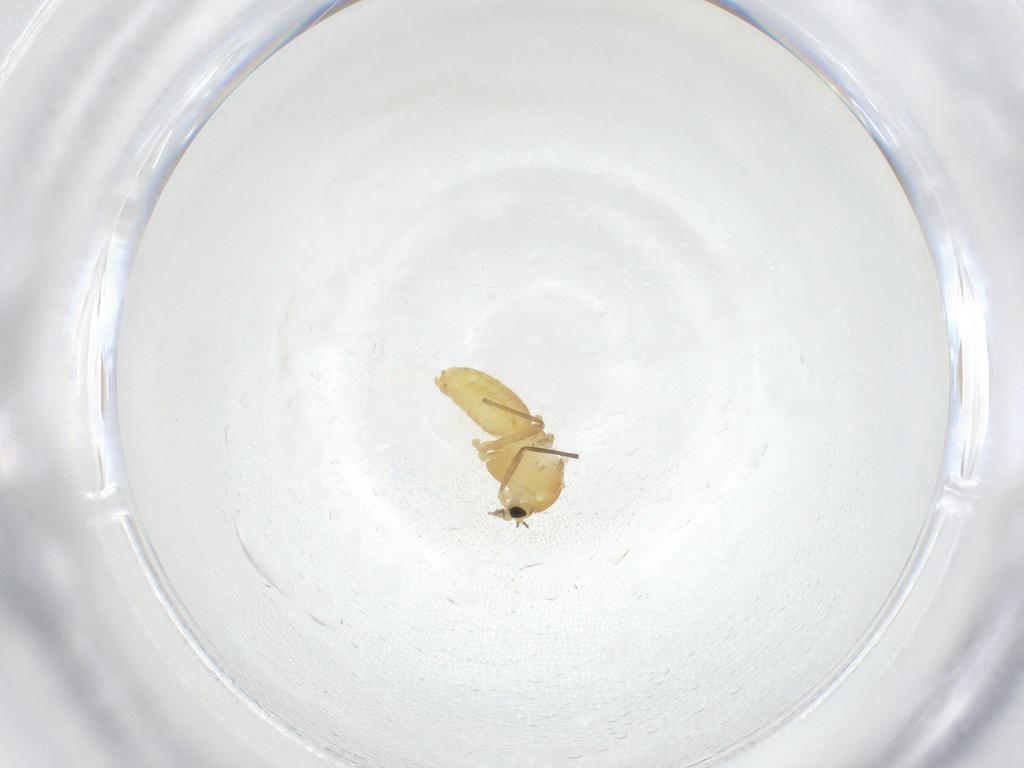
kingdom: Animalia
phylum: Arthropoda
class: Insecta
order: Diptera
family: Chironomidae
